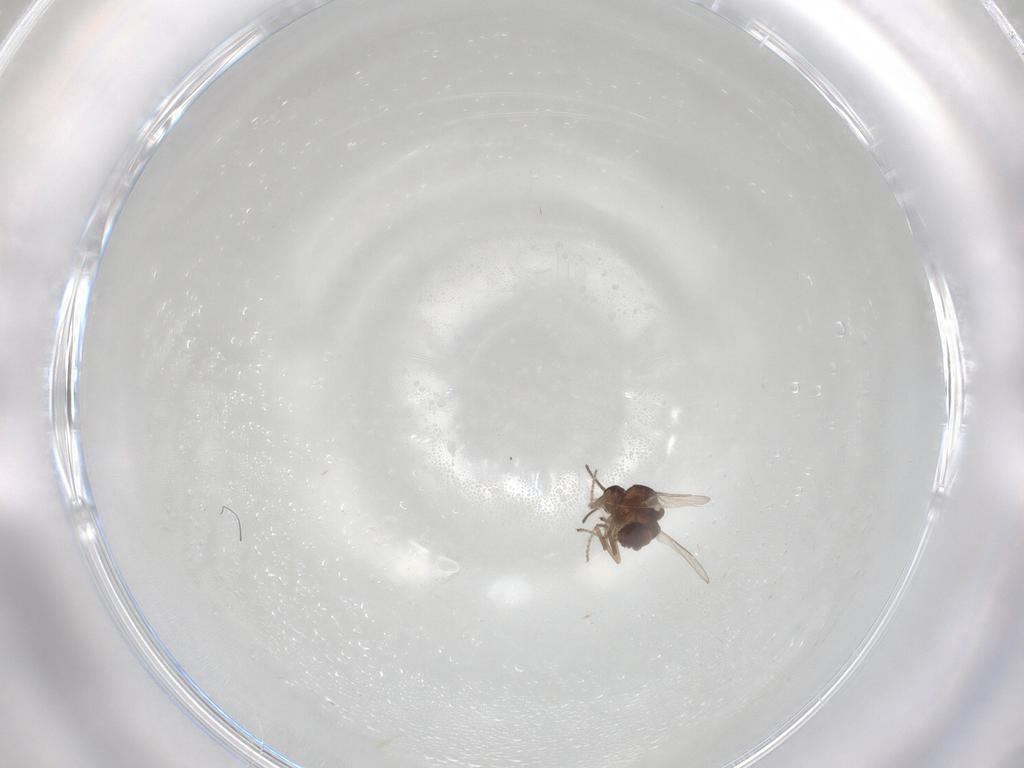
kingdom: Animalia
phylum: Arthropoda
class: Insecta
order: Diptera
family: Ceratopogonidae
